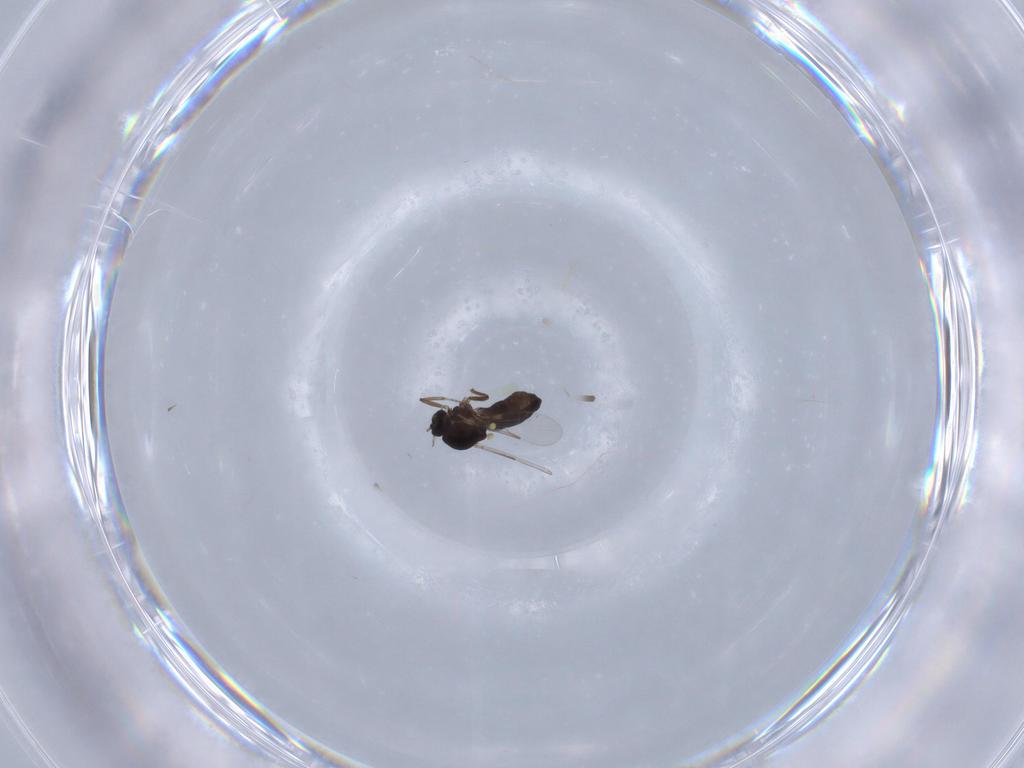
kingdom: Animalia
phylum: Arthropoda
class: Insecta
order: Diptera
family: Ceratopogonidae
